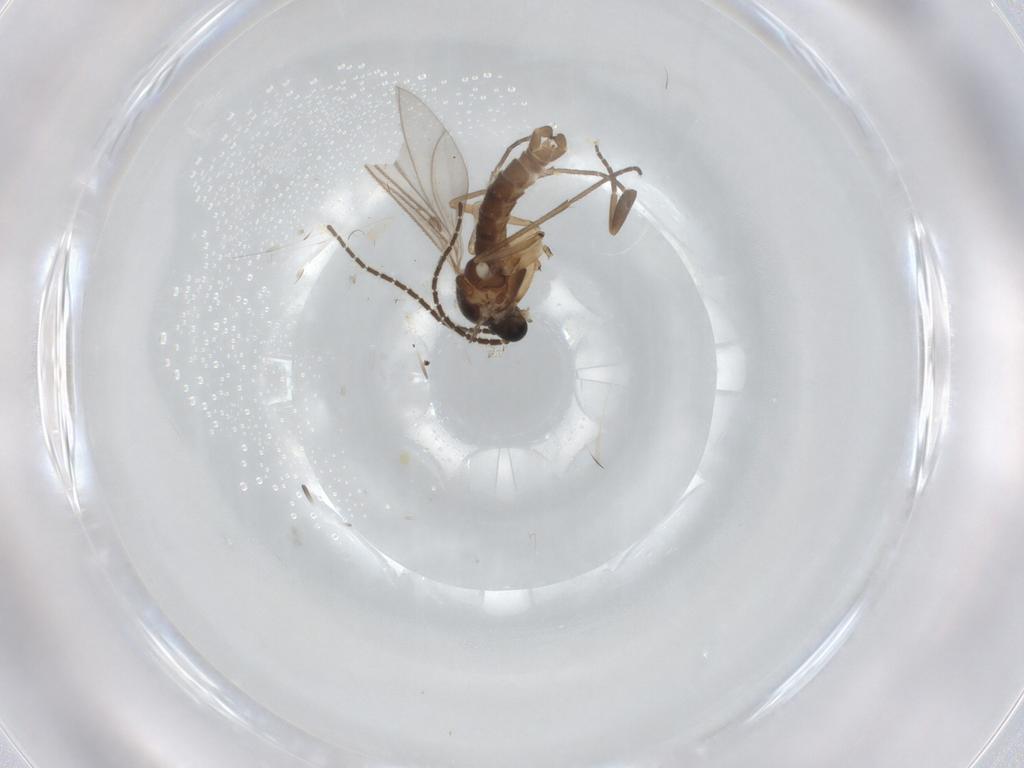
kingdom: Animalia
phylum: Arthropoda
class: Insecta
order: Diptera
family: Sciaridae
